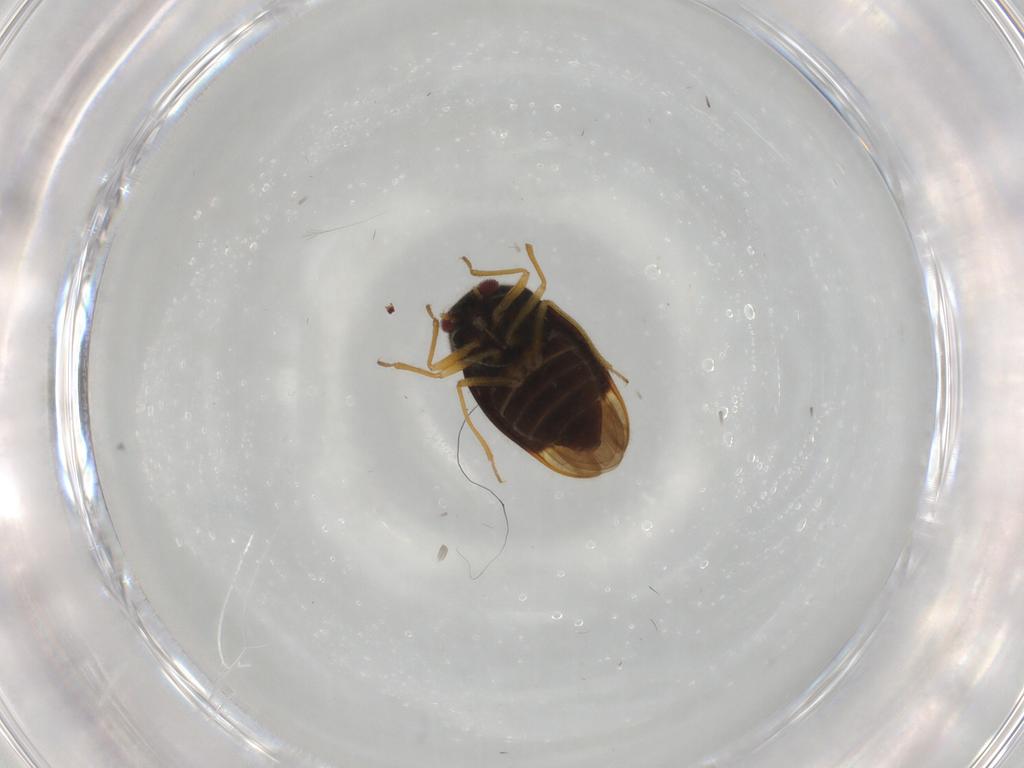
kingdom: Animalia
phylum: Arthropoda
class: Insecta
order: Hemiptera
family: Schizopteridae
